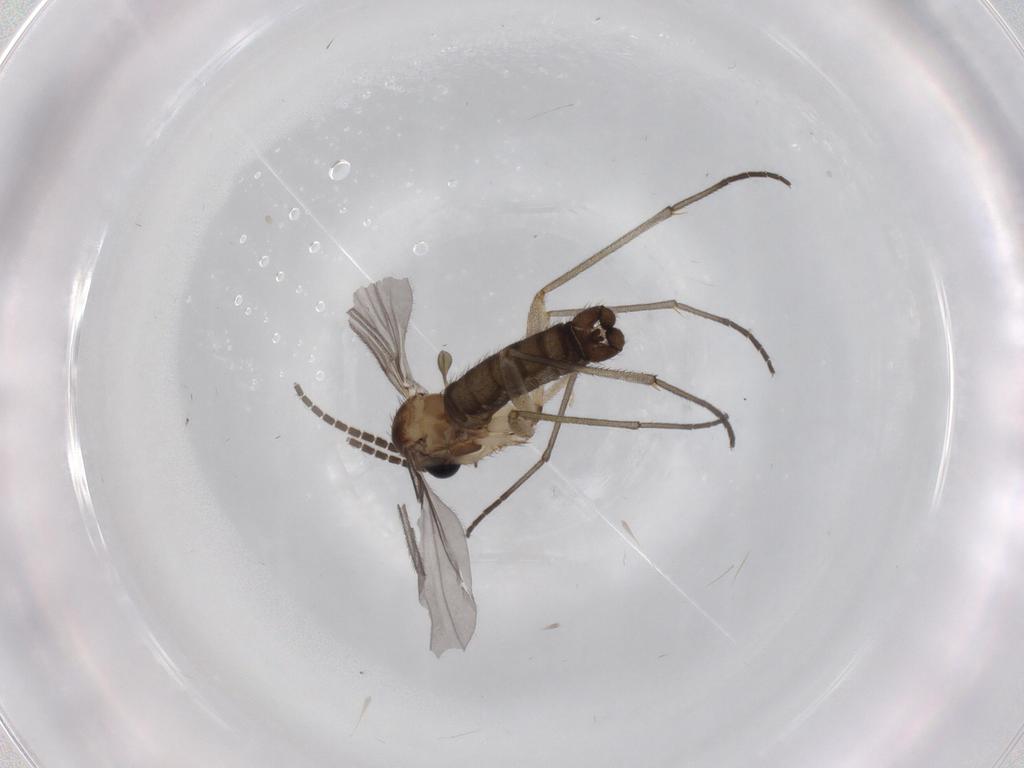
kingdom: Animalia
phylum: Arthropoda
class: Insecta
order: Diptera
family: Sciaridae
